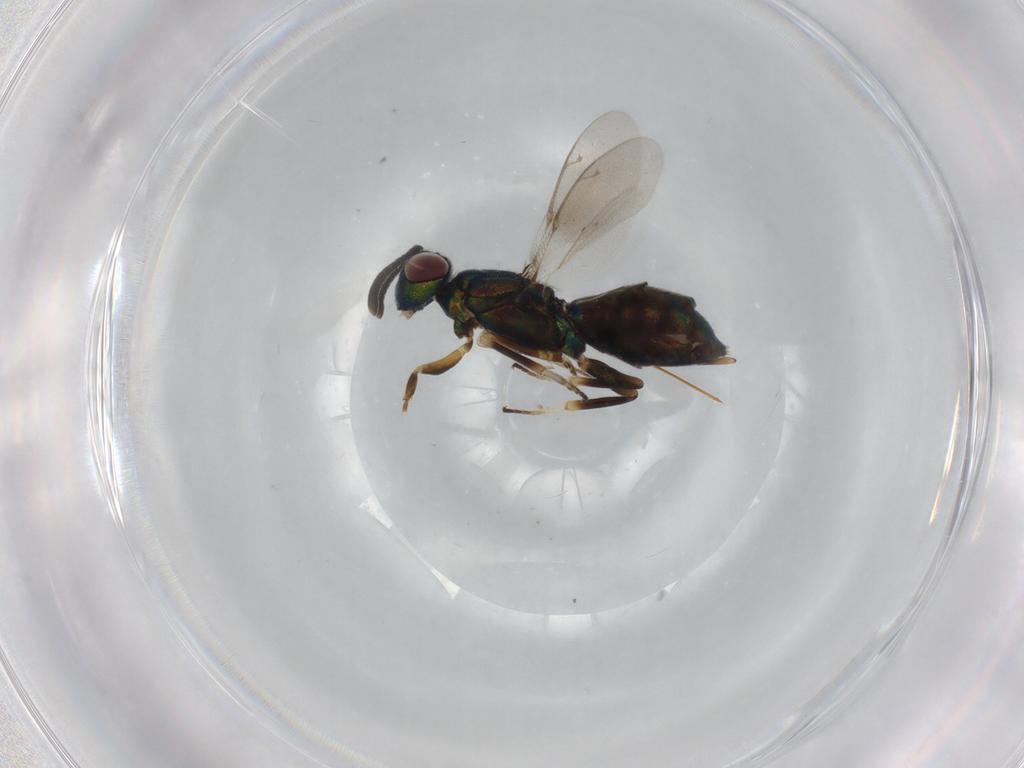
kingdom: Animalia
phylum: Arthropoda
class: Insecta
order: Hymenoptera
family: Eupelmidae
